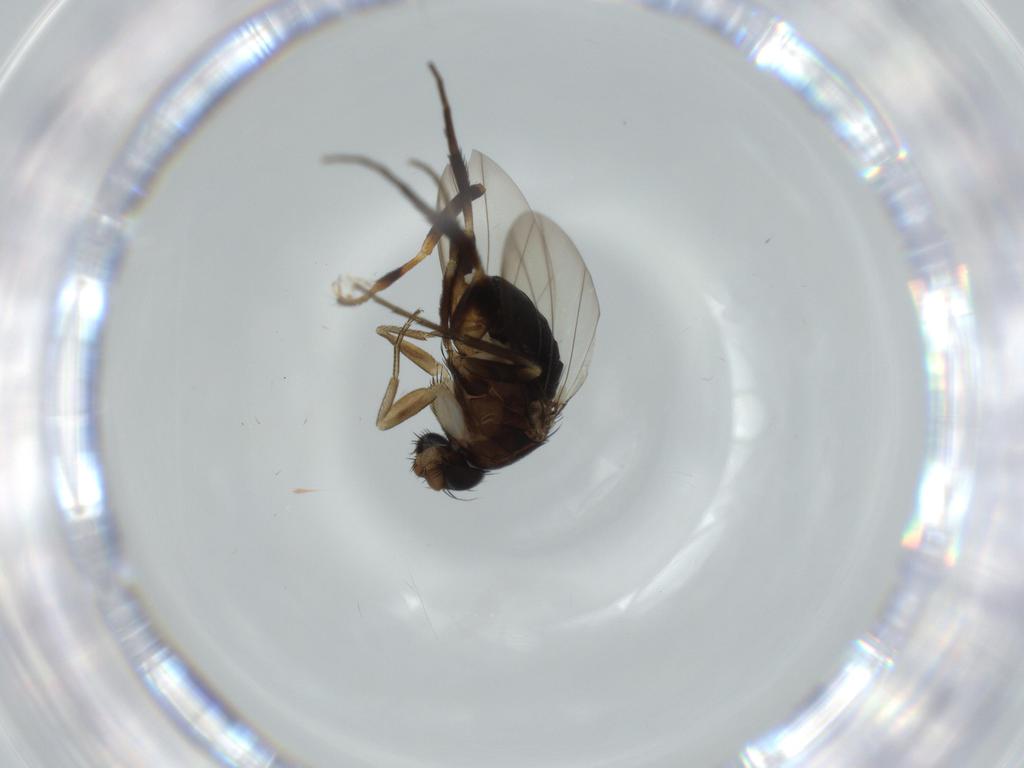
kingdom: Animalia
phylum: Arthropoda
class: Insecta
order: Diptera
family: Phoridae
